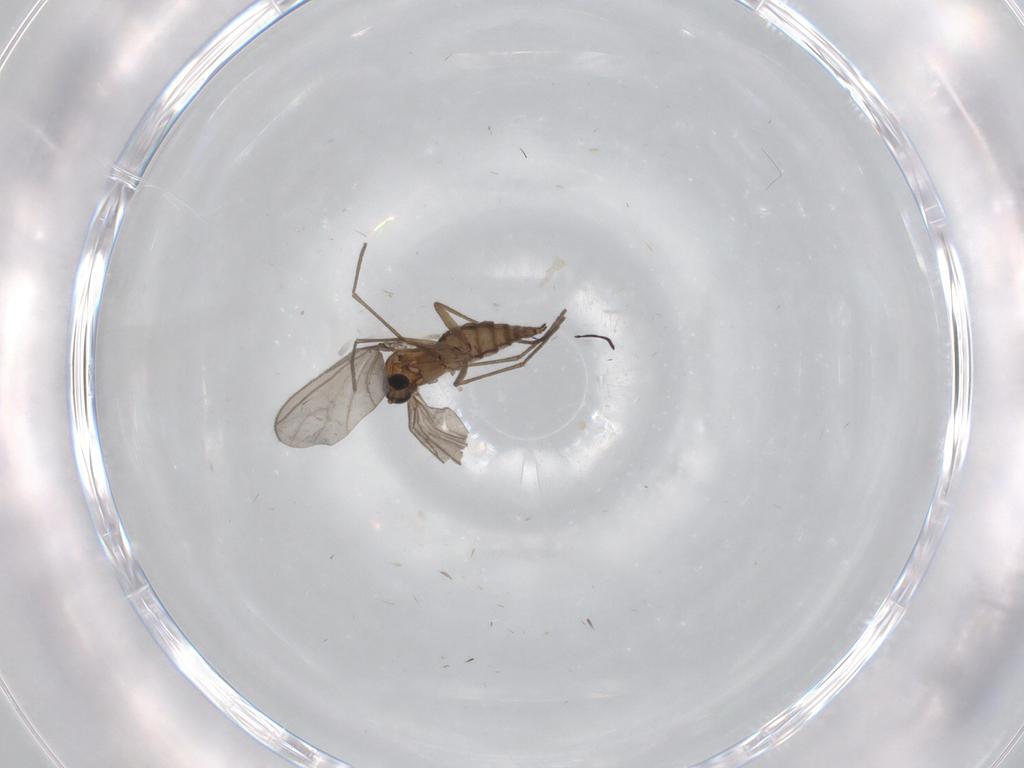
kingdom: Animalia
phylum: Arthropoda
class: Insecta
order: Diptera
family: Sciaridae
